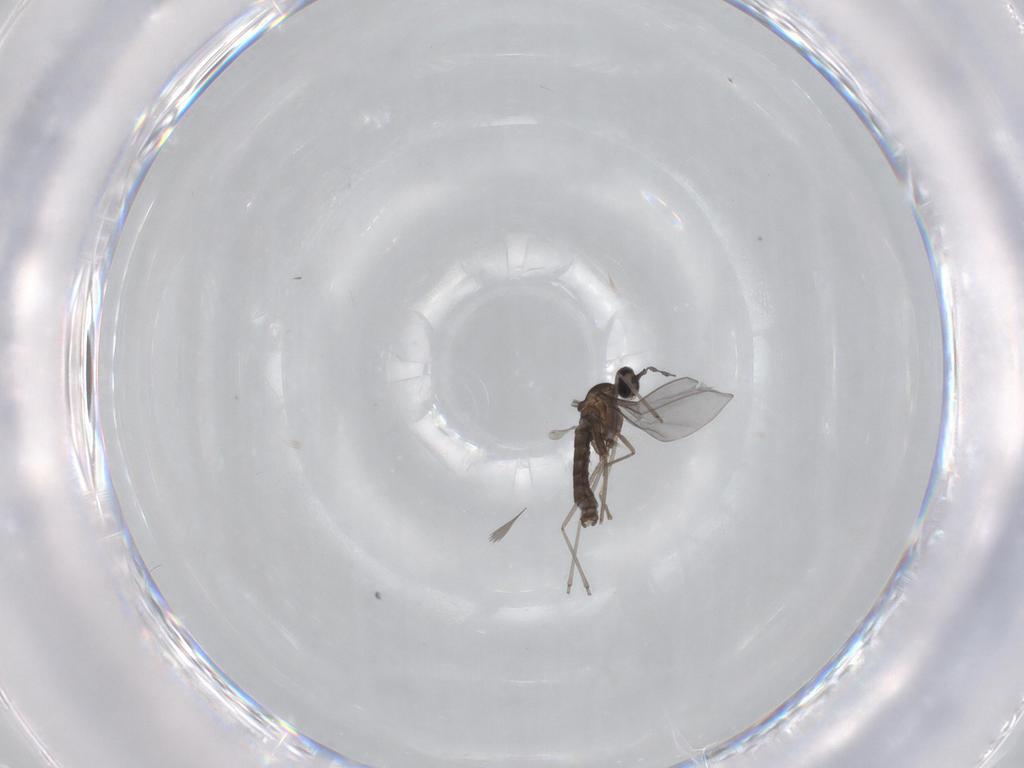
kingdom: Animalia
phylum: Arthropoda
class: Insecta
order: Diptera
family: Cecidomyiidae
